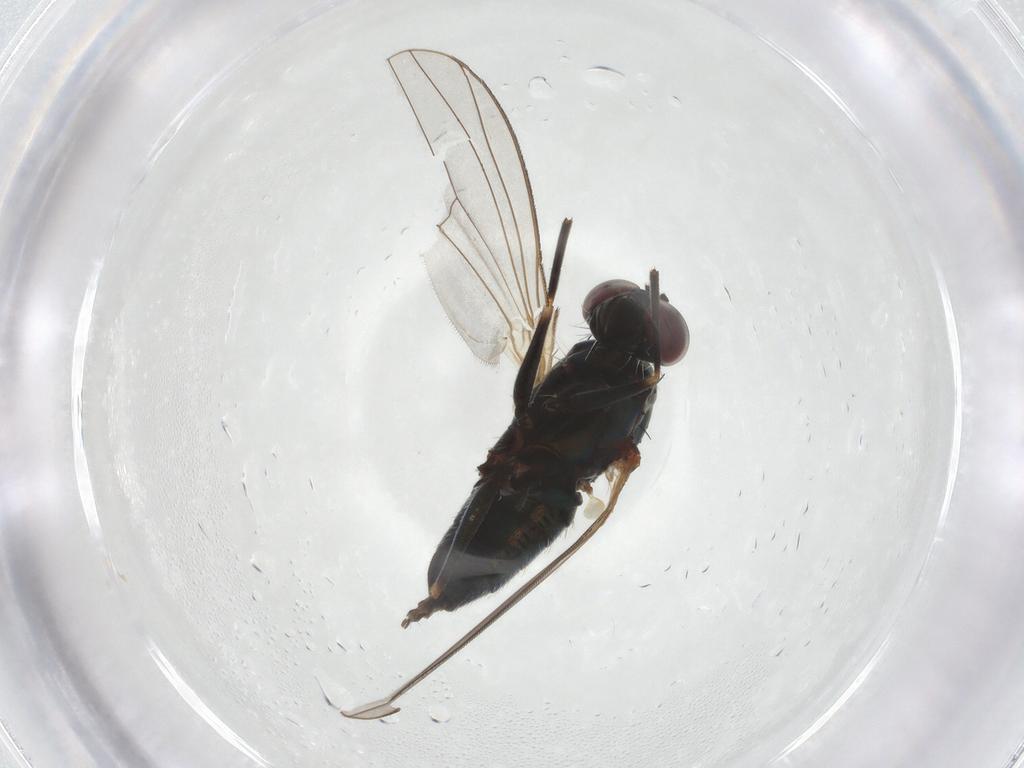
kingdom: Animalia
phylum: Arthropoda
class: Insecta
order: Diptera
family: Dolichopodidae
